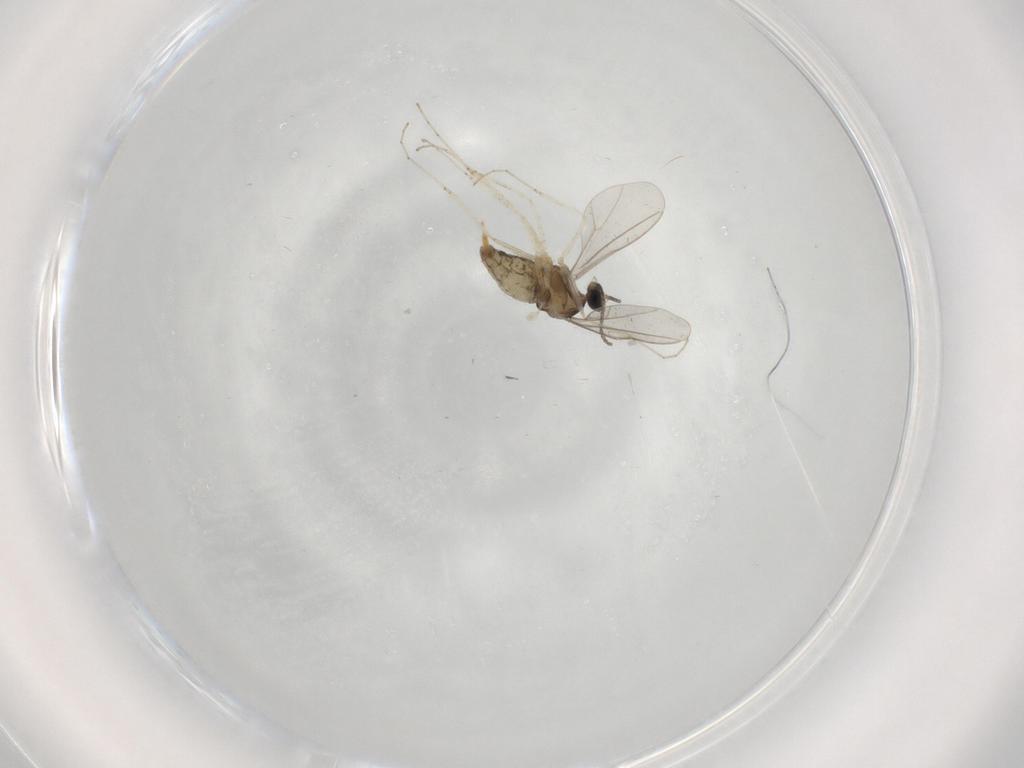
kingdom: Animalia
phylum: Arthropoda
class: Insecta
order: Diptera
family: Cecidomyiidae
